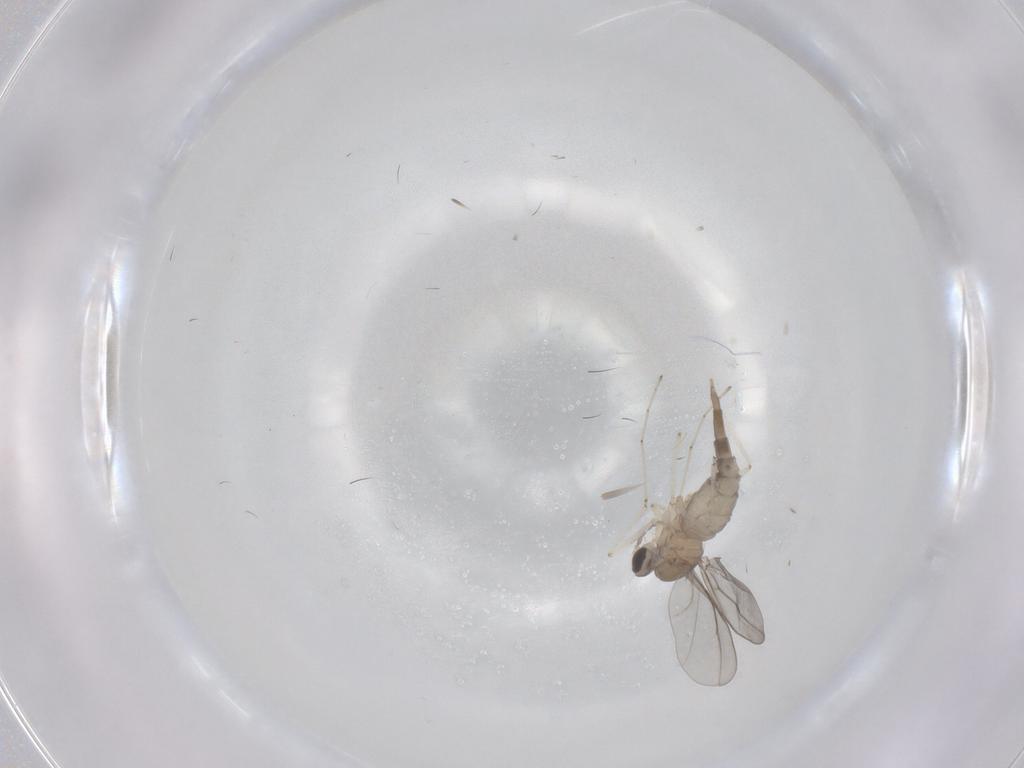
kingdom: Animalia
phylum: Arthropoda
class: Insecta
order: Diptera
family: Cecidomyiidae
